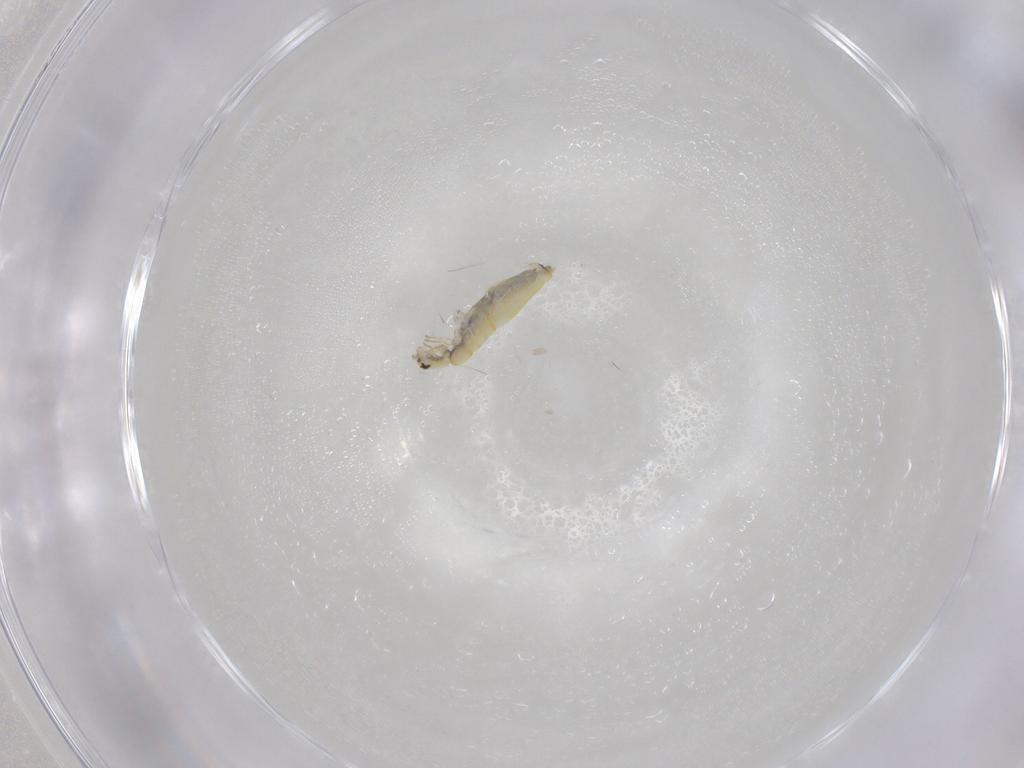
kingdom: Animalia
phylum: Arthropoda
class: Collembola
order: Entomobryomorpha
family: Entomobryidae
